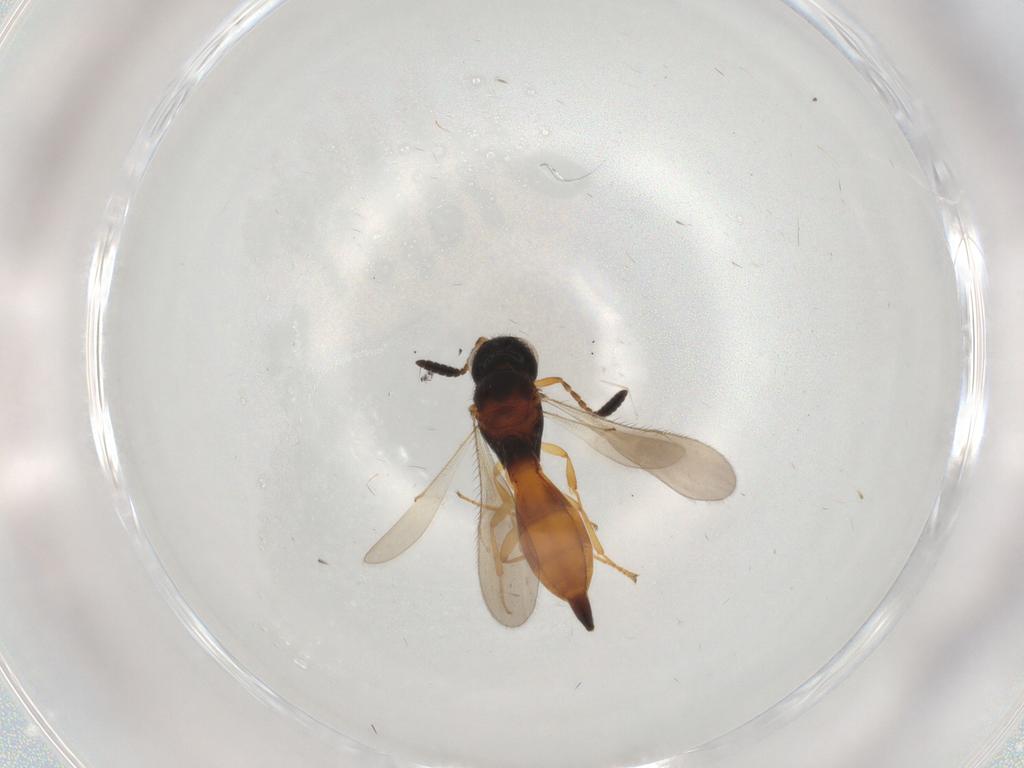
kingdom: Animalia
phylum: Arthropoda
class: Insecta
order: Hymenoptera
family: Scelionidae
